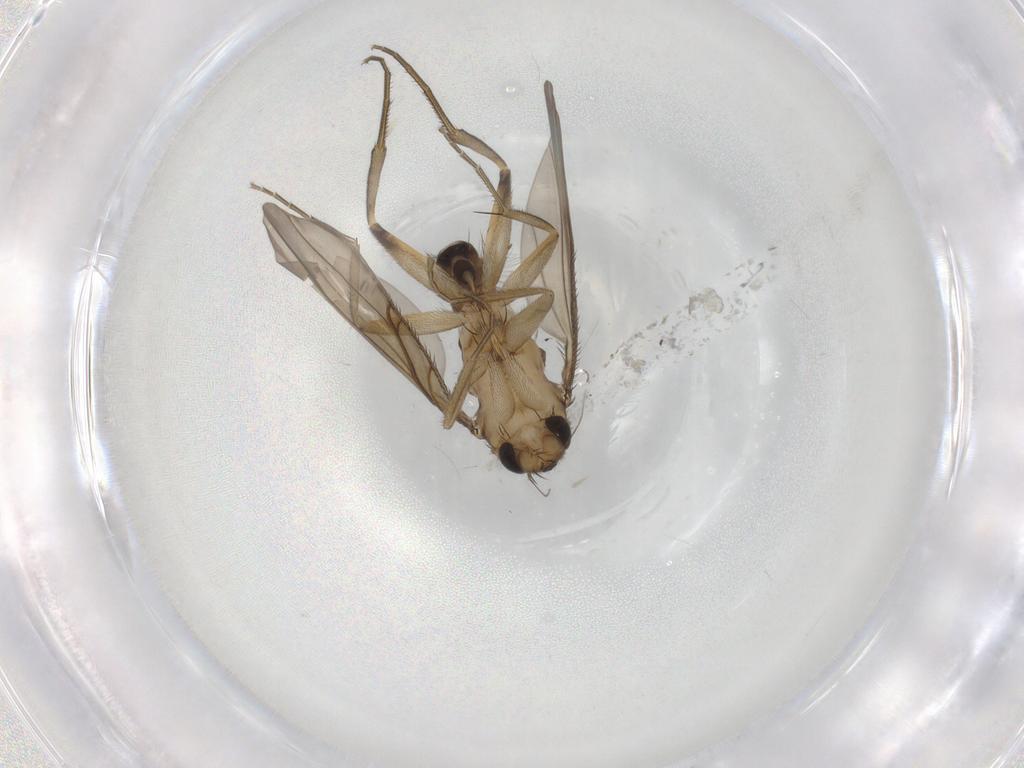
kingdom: Animalia
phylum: Arthropoda
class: Insecta
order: Diptera
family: Phoridae
